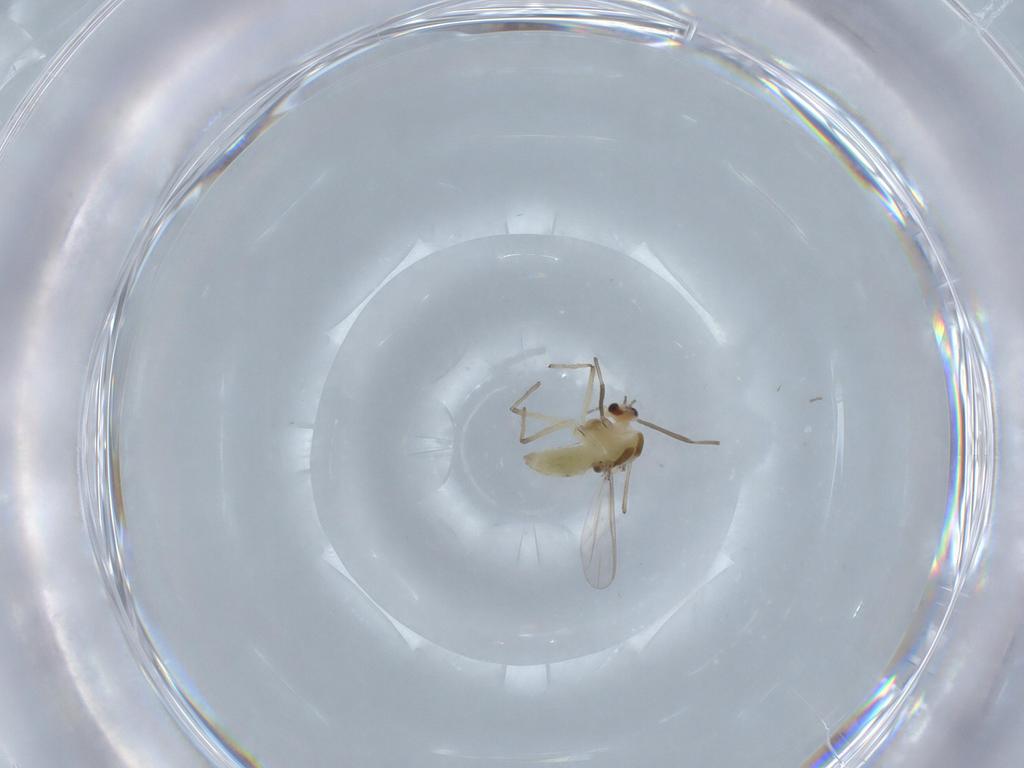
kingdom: Animalia
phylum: Arthropoda
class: Insecta
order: Diptera
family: Chironomidae
